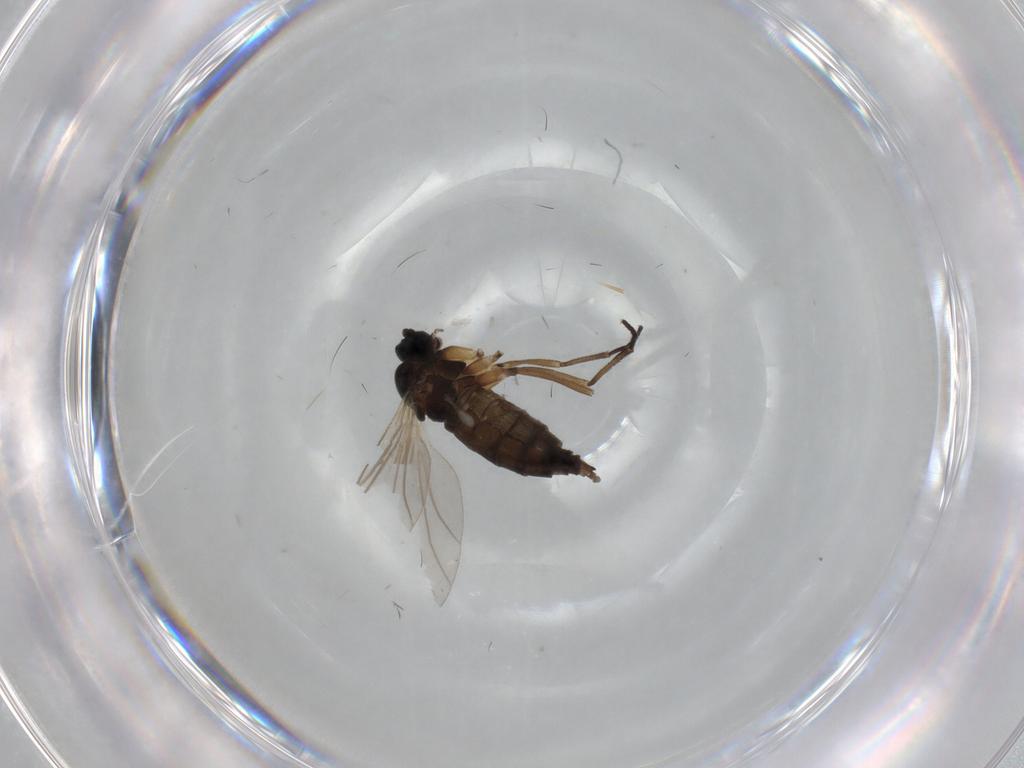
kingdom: Animalia
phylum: Arthropoda
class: Insecta
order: Diptera
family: Sciaridae
